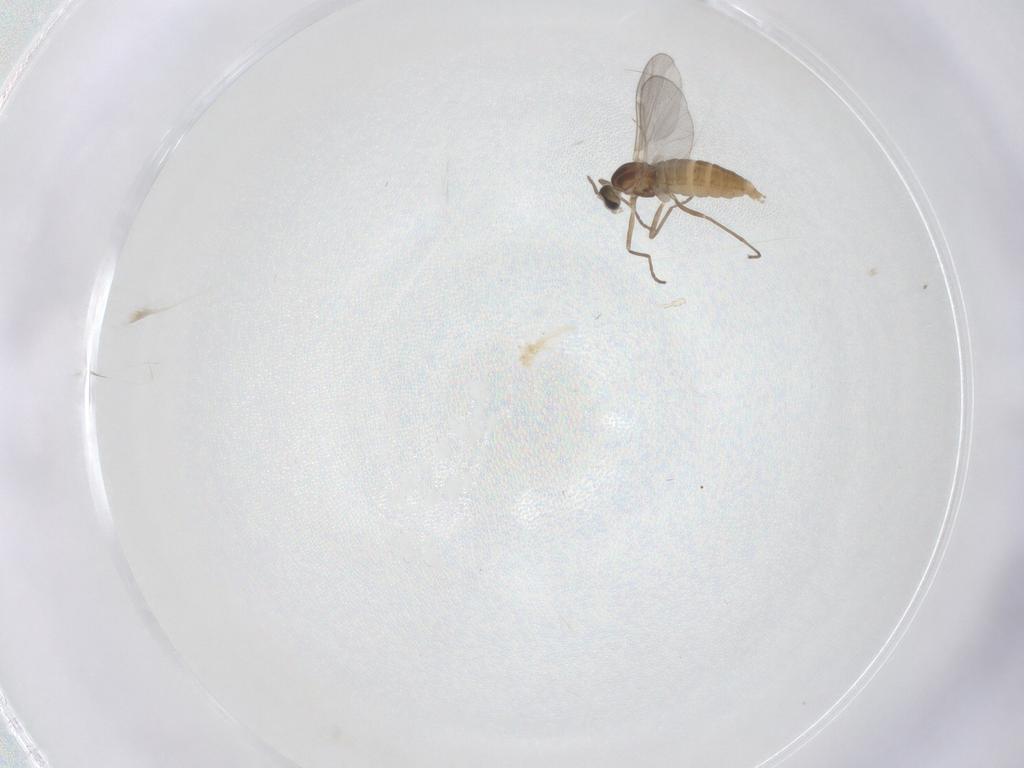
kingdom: Animalia
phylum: Arthropoda
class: Insecta
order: Diptera
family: Cecidomyiidae
